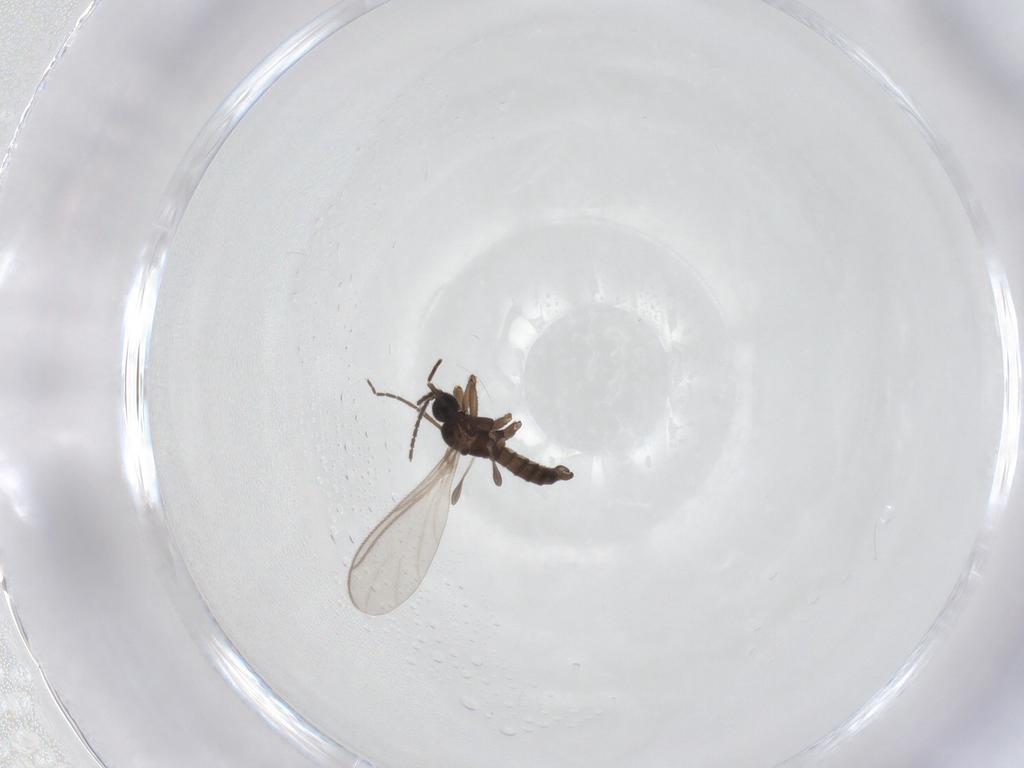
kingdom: Animalia
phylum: Arthropoda
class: Insecta
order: Diptera
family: Sciaridae
